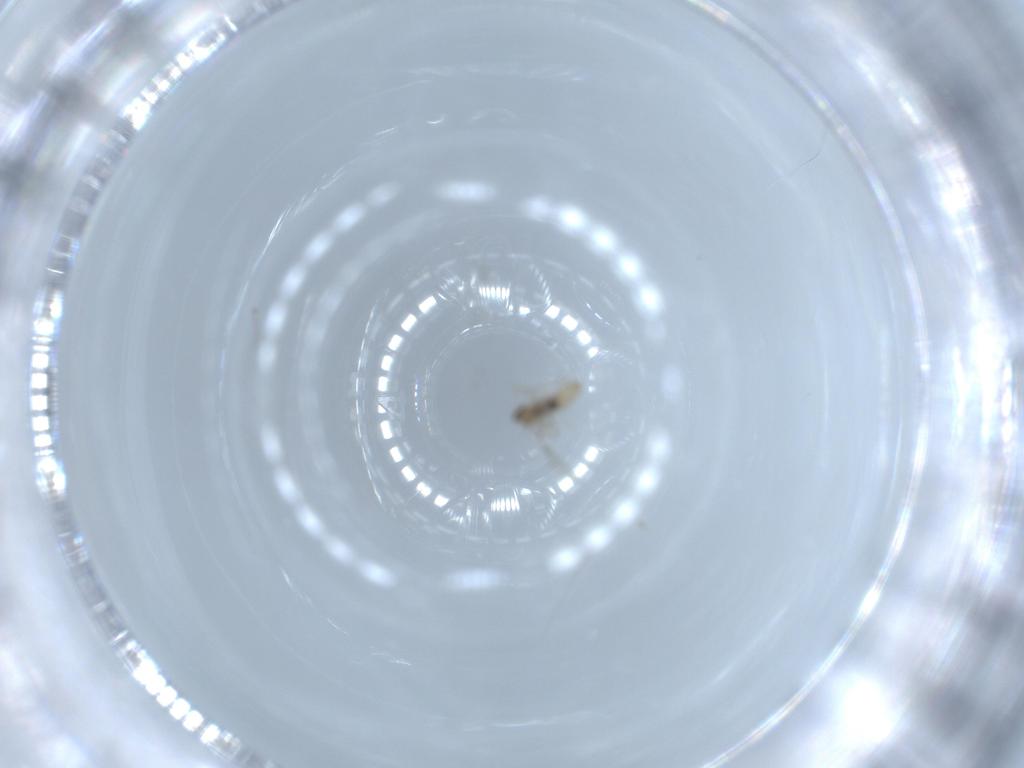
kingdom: Animalia
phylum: Arthropoda
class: Insecta
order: Diptera
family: Cecidomyiidae
